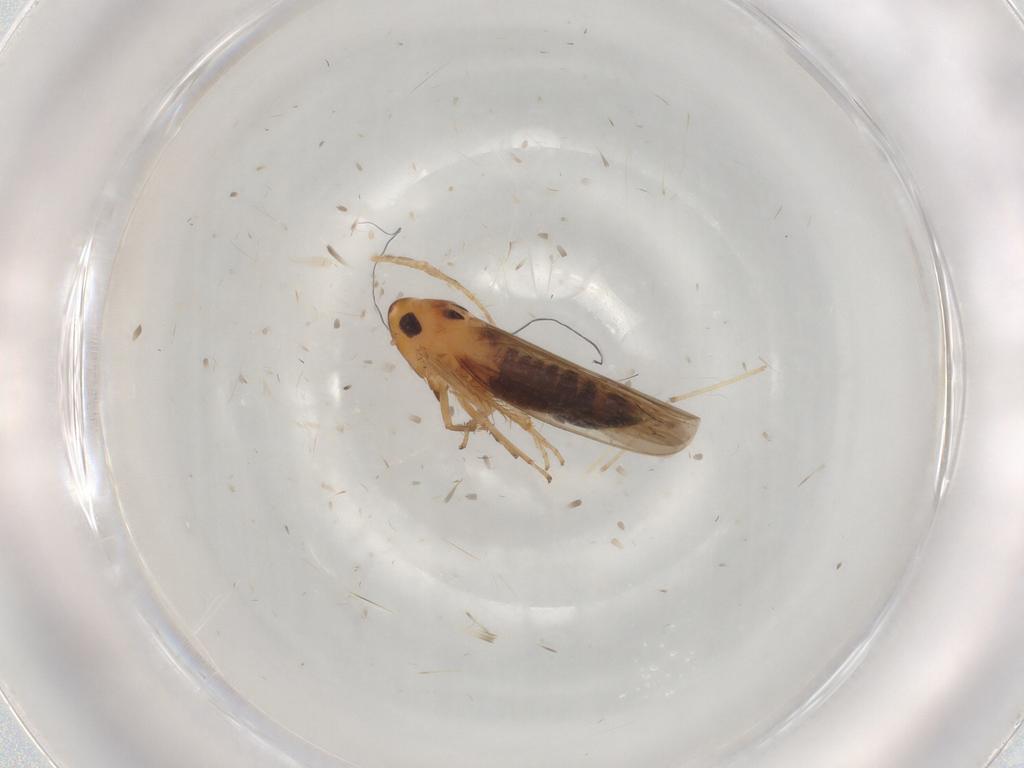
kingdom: Animalia
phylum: Arthropoda
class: Insecta
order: Hemiptera
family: Cicadellidae
